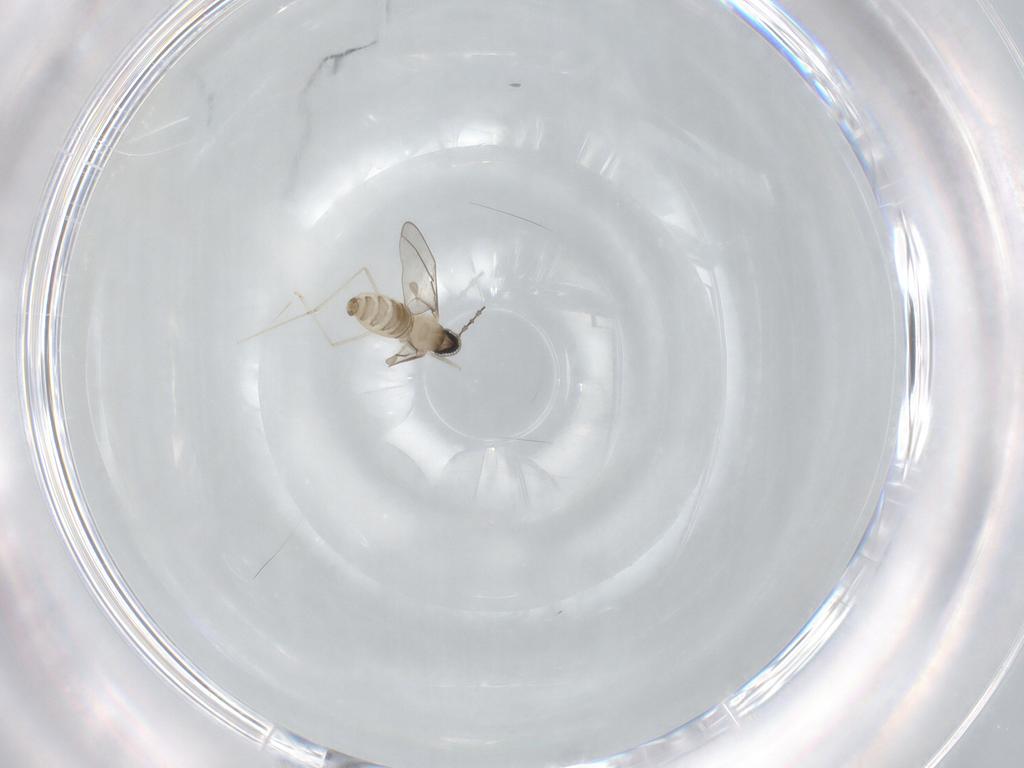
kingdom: Animalia
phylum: Arthropoda
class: Insecta
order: Diptera
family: Cecidomyiidae
